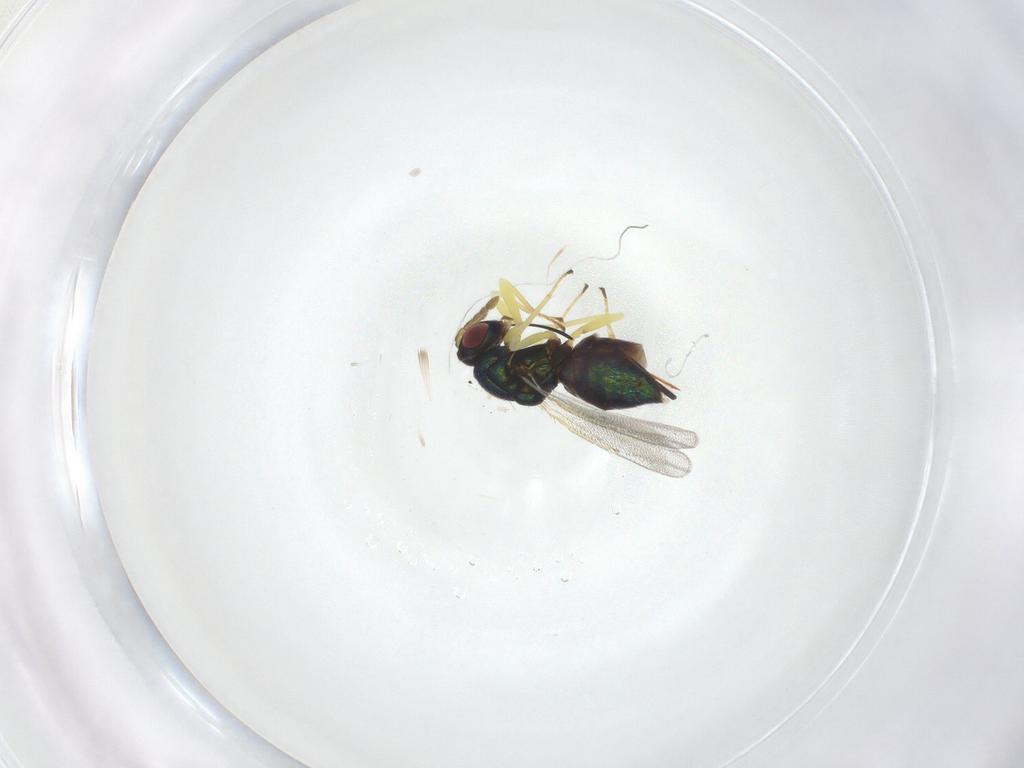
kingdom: Animalia
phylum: Arthropoda
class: Insecta
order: Hymenoptera
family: Eulophidae
